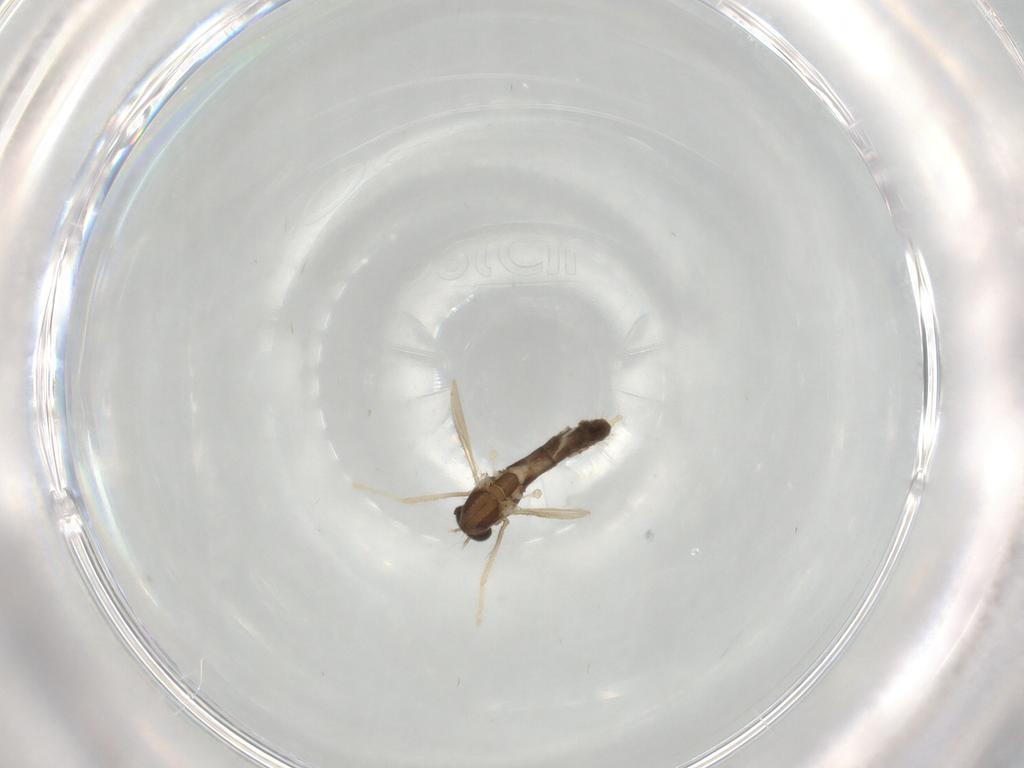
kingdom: Animalia
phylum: Arthropoda
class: Insecta
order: Diptera
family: Chironomidae
